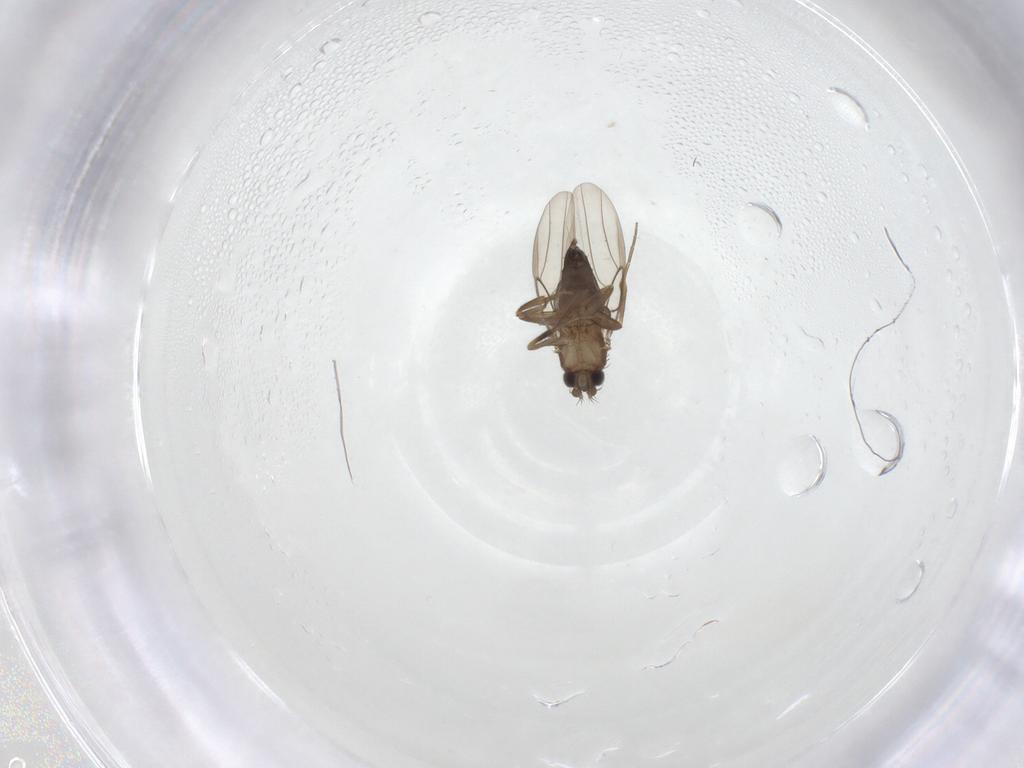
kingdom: Animalia
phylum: Arthropoda
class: Insecta
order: Diptera
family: Phoridae
